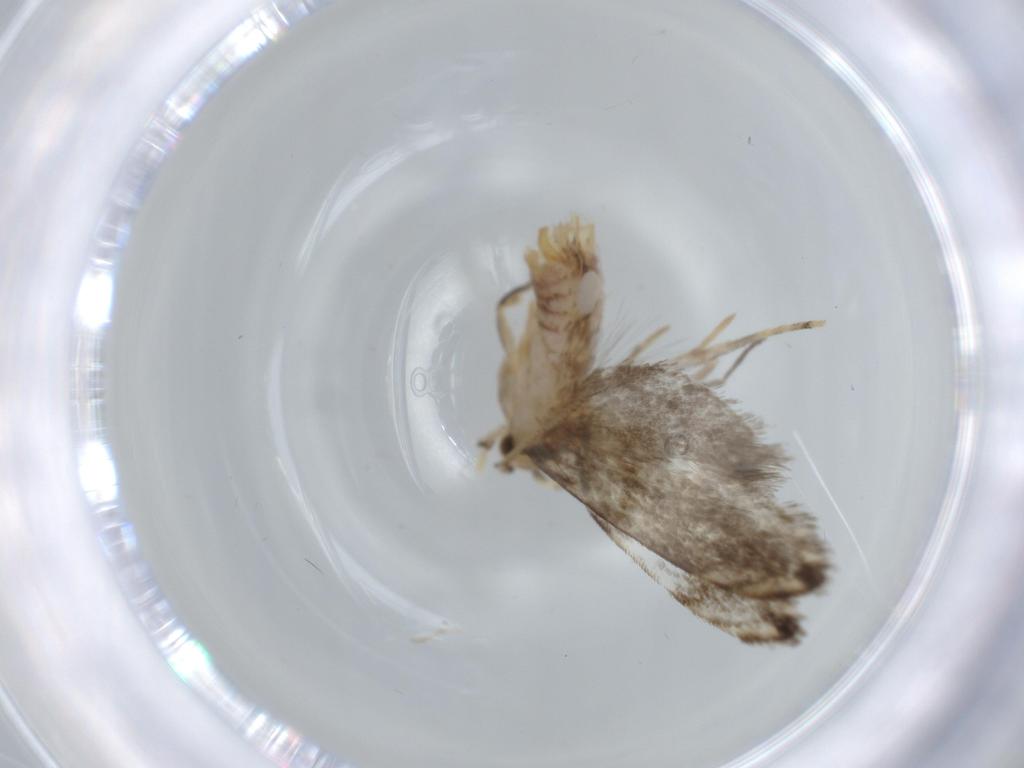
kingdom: Animalia
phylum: Arthropoda
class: Insecta
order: Lepidoptera
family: Dryadaulidae
